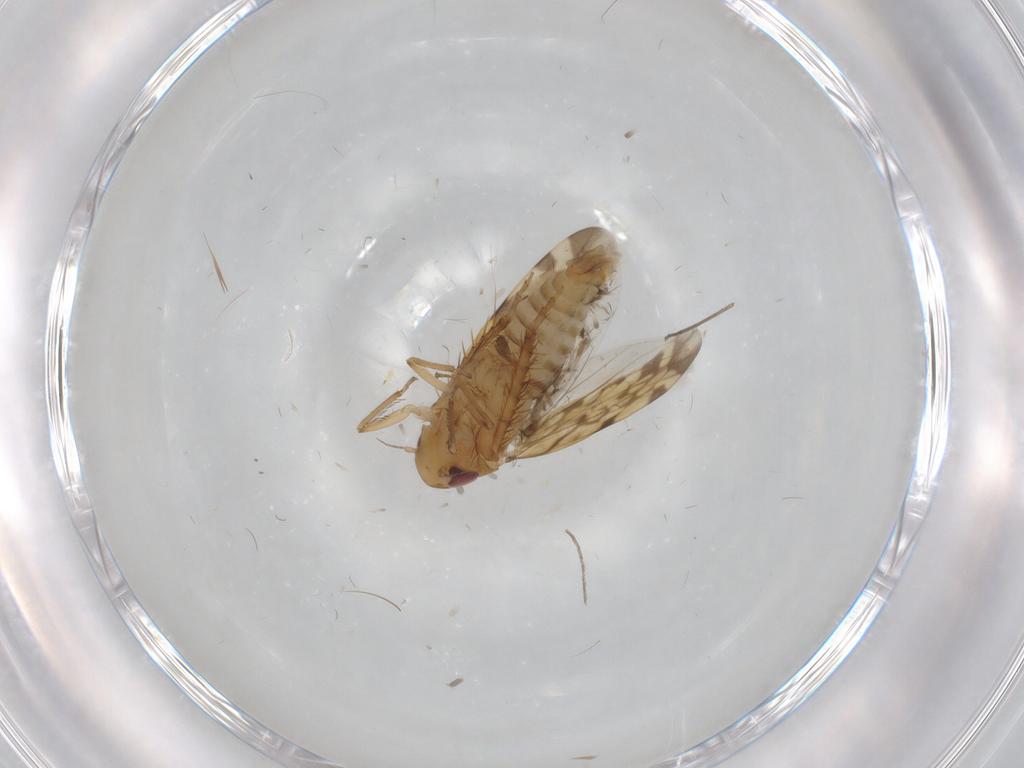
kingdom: Animalia
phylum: Arthropoda
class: Insecta
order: Hemiptera
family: Cicadellidae
